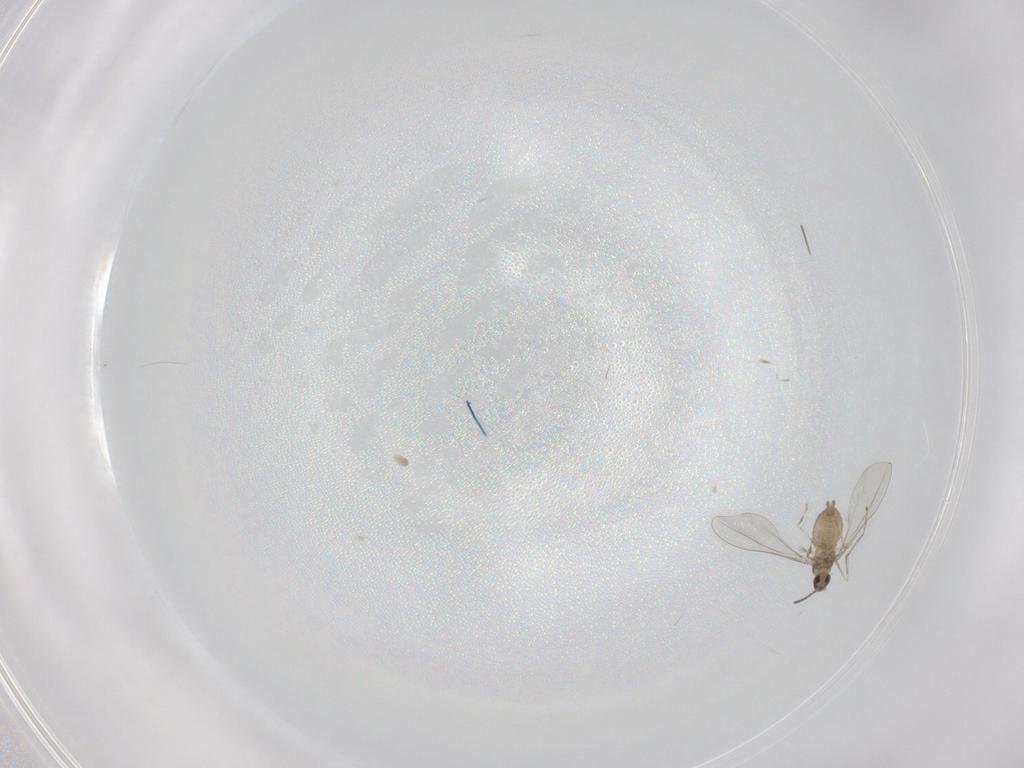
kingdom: Animalia
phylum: Arthropoda
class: Insecta
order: Diptera
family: Cecidomyiidae
